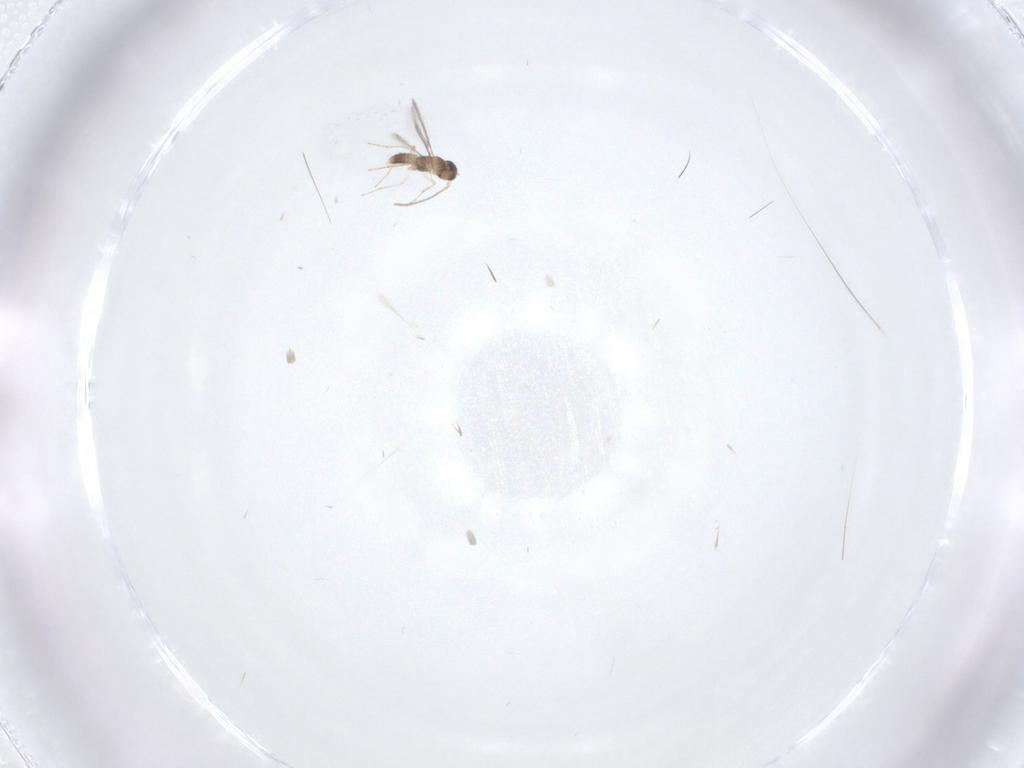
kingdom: Animalia
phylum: Arthropoda
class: Insecta
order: Hymenoptera
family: Mymaridae
